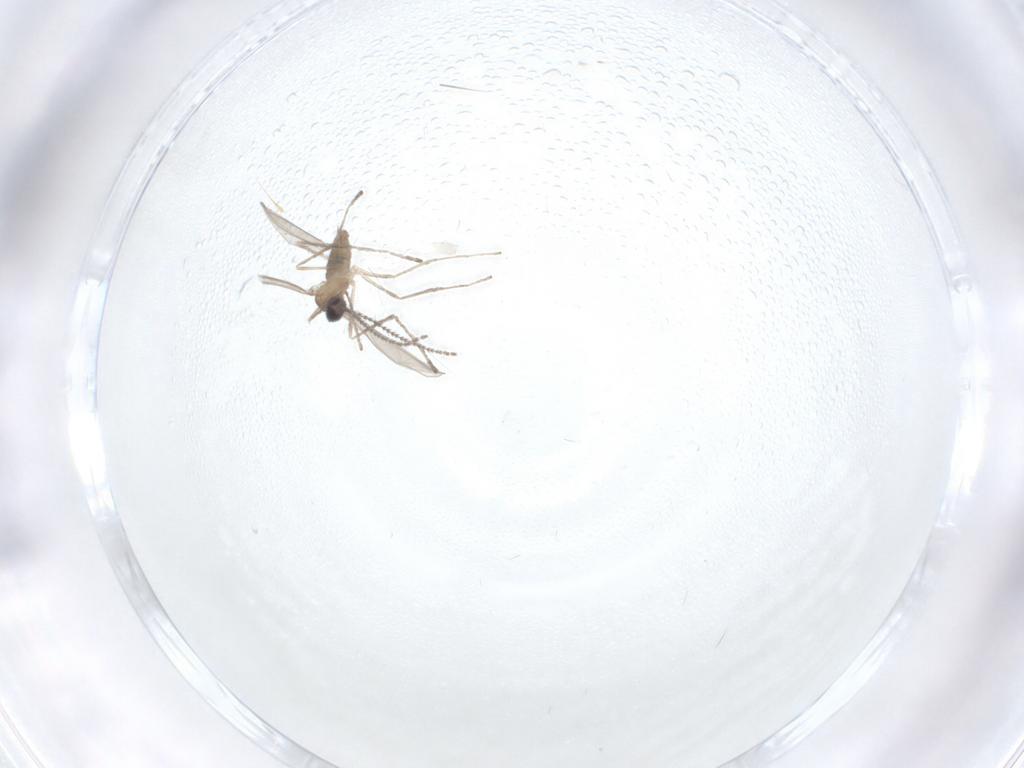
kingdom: Animalia
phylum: Arthropoda
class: Insecta
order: Diptera
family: Cecidomyiidae
